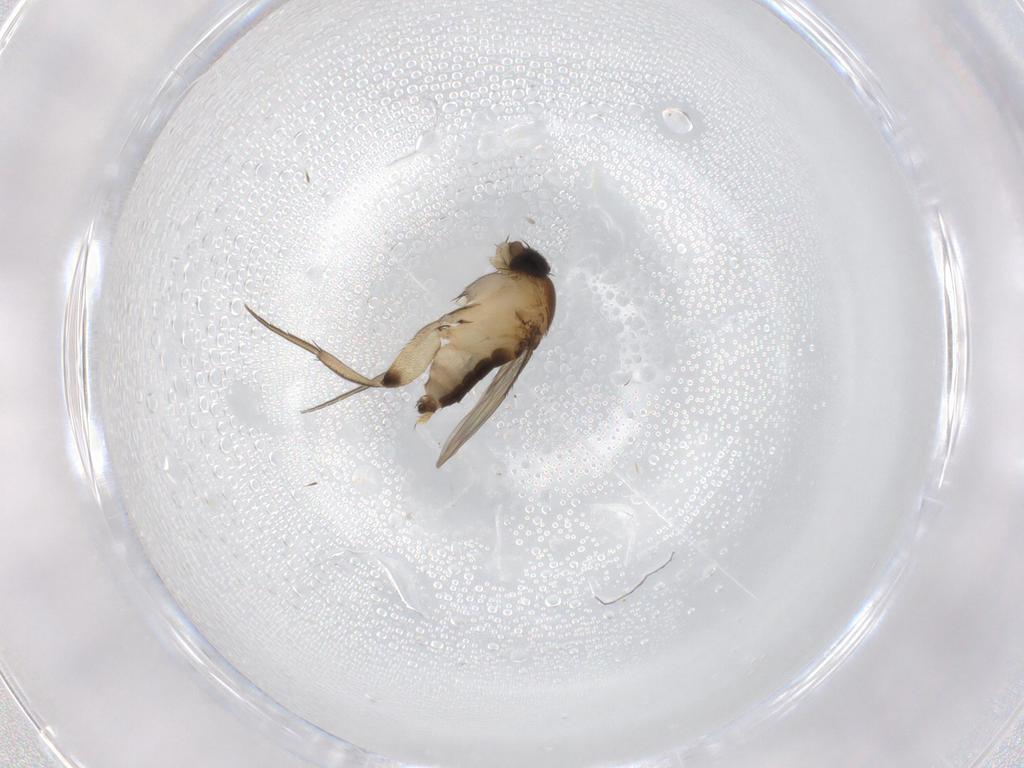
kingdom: Animalia
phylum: Arthropoda
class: Insecta
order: Diptera
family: Phoridae
